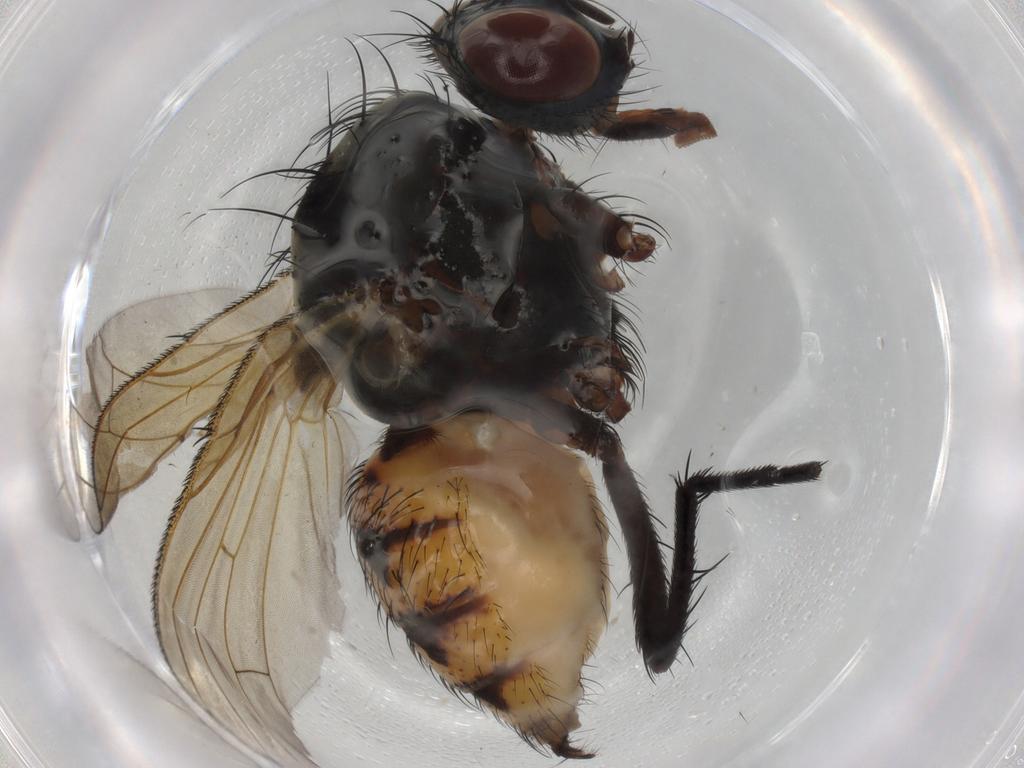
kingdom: Animalia
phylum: Arthropoda
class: Insecta
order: Diptera
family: Anthomyiidae
